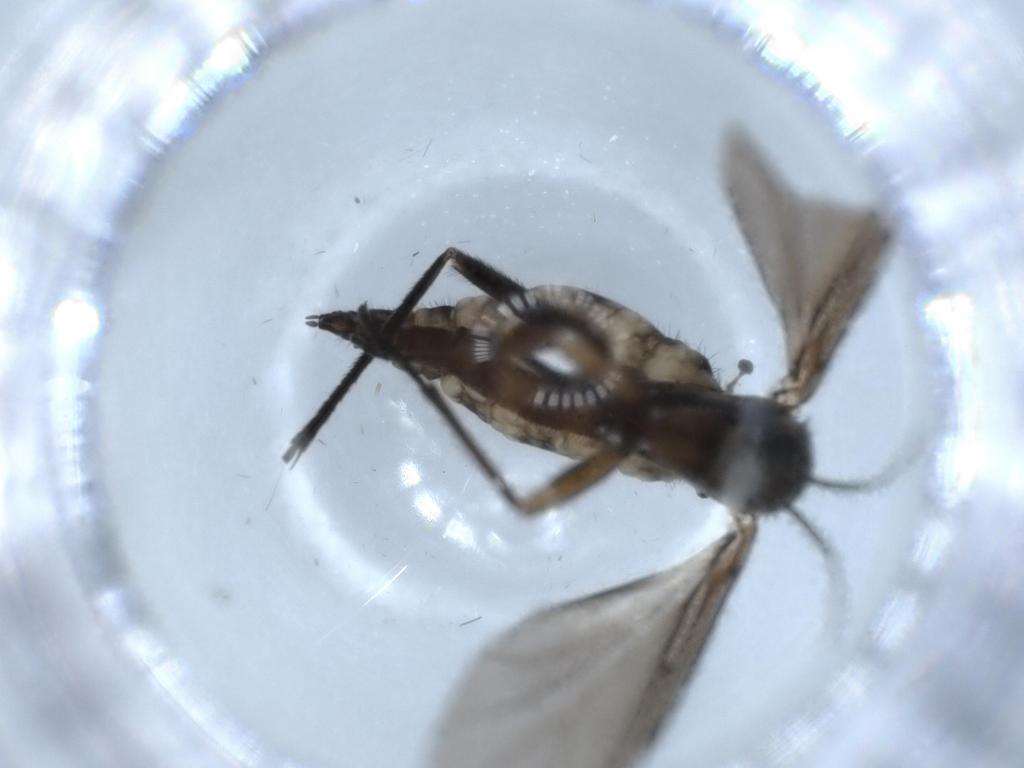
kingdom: Animalia
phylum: Arthropoda
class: Insecta
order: Diptera
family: Sciaridae
